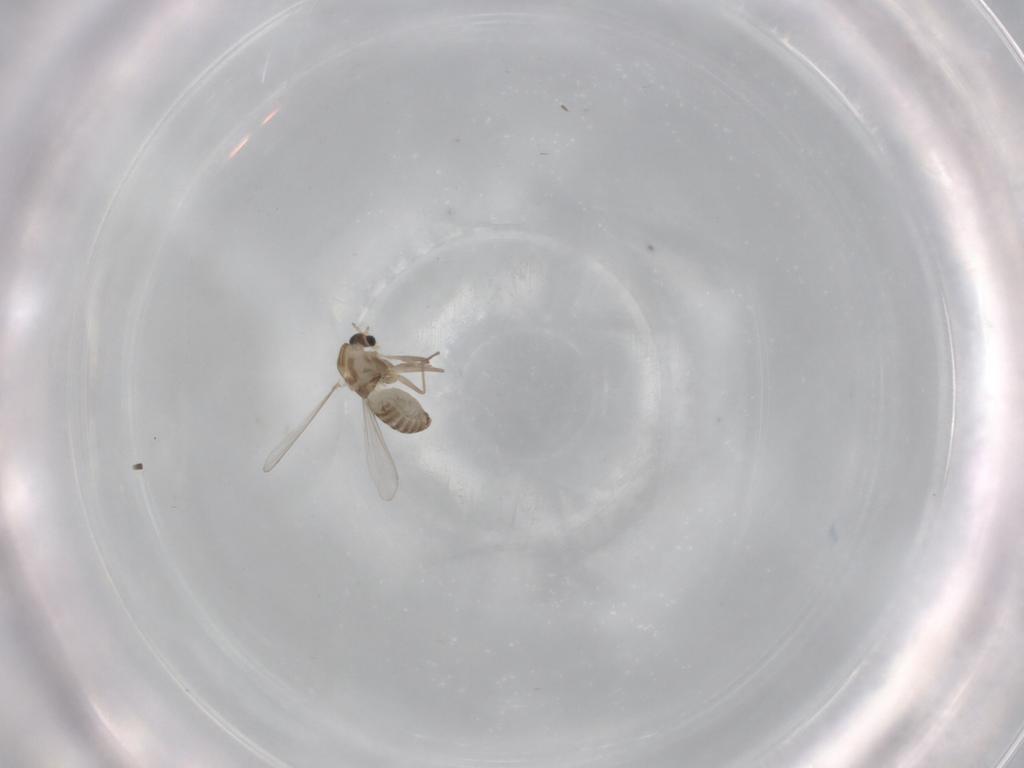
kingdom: Animalia
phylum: Arthropoda
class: Insecta
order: Diptera
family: Chironomidae
